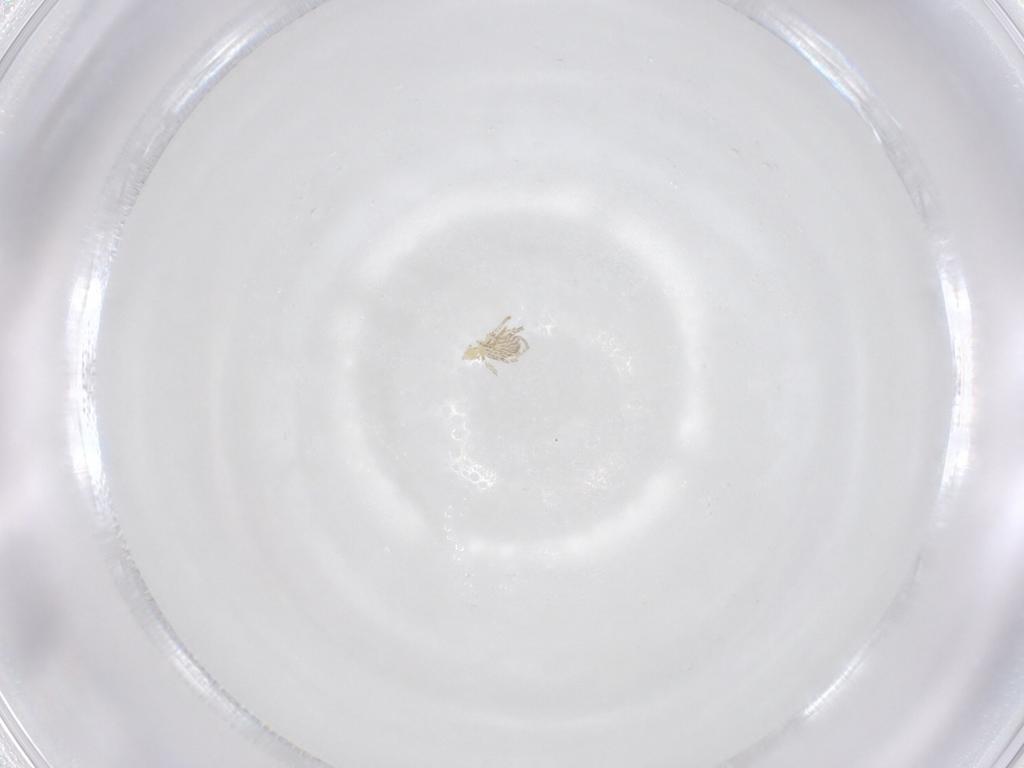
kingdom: Animalia
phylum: Arthropoda
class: Arachnida
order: Trombidiformes
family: Erythraeidae
